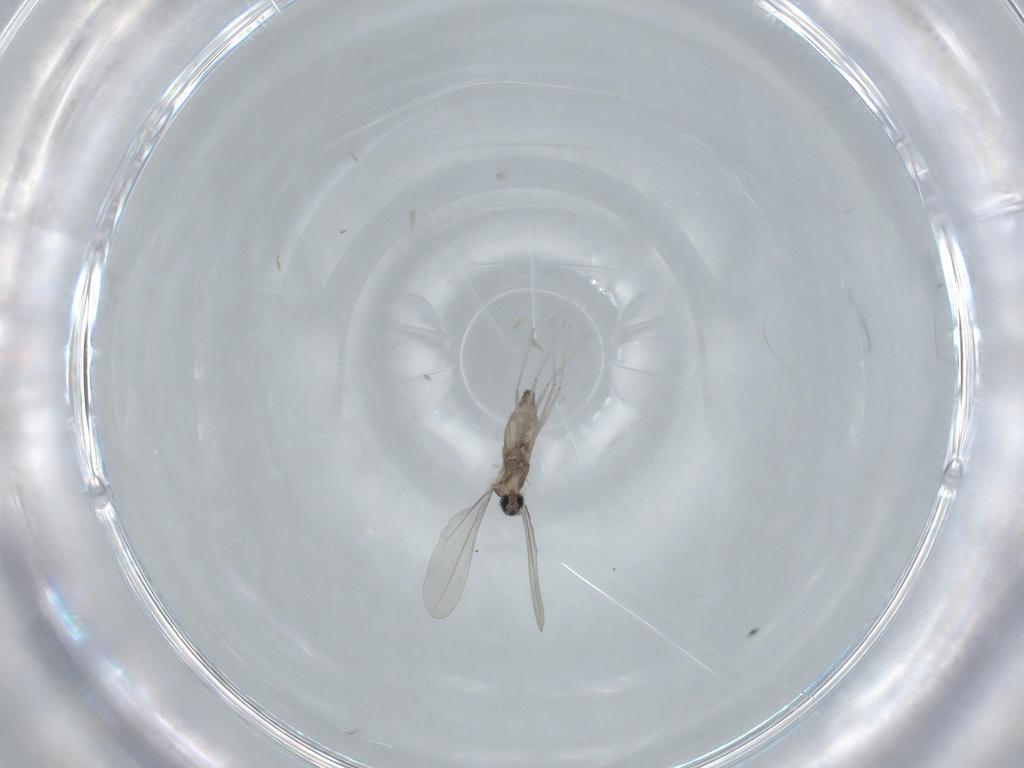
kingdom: Animalia
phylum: Arthropoda
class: Insecta
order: Diptera
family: Cecidomyiidae
